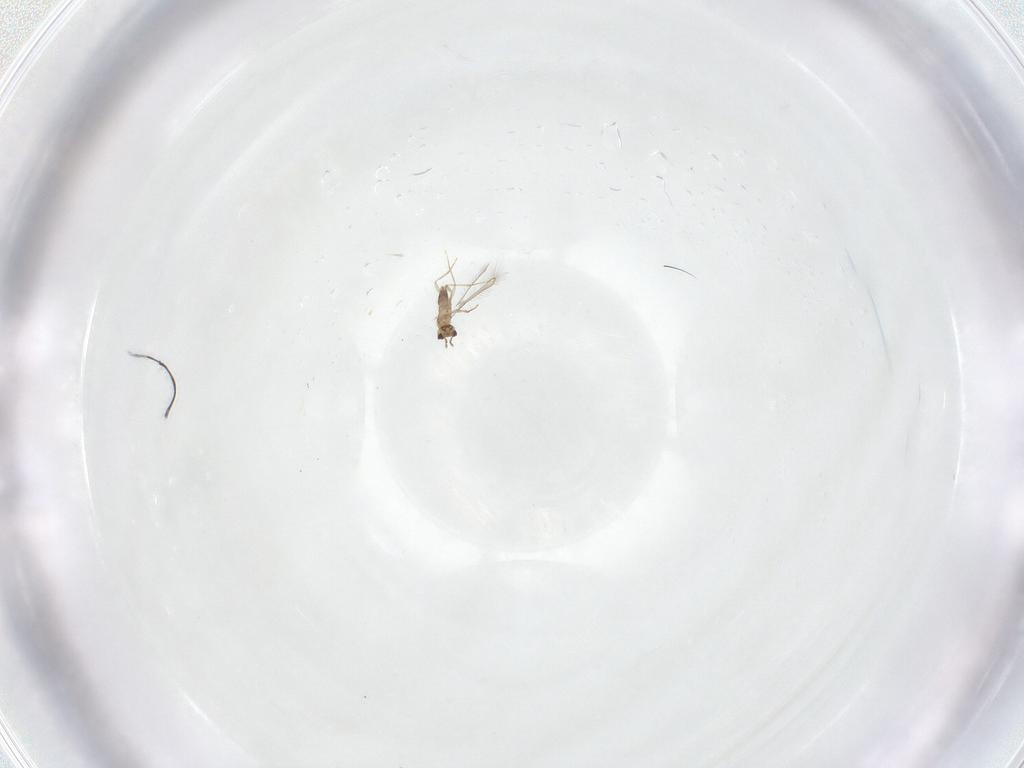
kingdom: Animalia
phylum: Arthropoda
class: Insecta
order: Hymenoptera
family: Mymaridae
